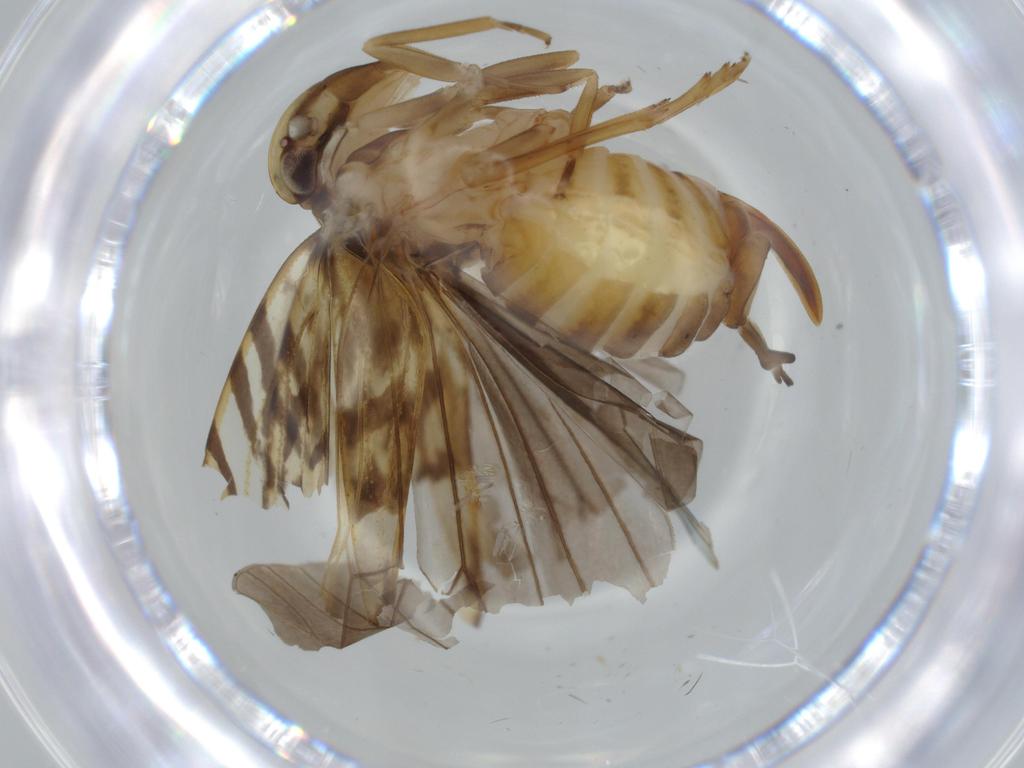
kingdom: Animalia
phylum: Arthropoda
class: Insecta
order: Hemiptera
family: Cixiidae
